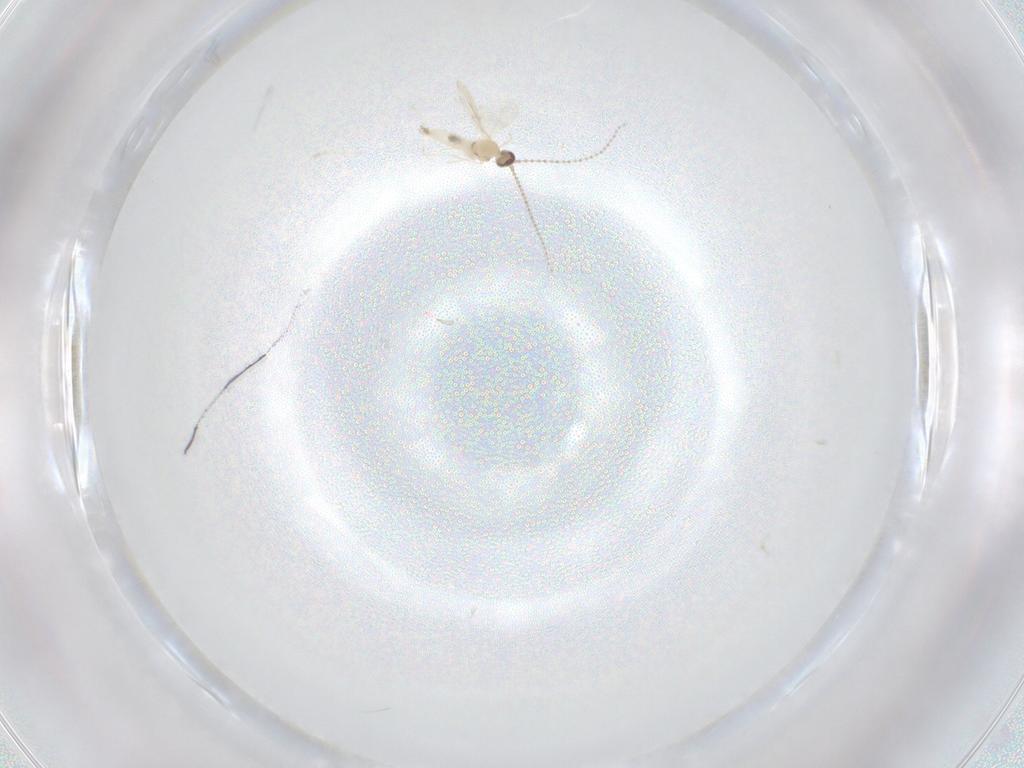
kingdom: Animalia
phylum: Arthropoda
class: Insecta
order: Diptera
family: Cecidomyiidae
